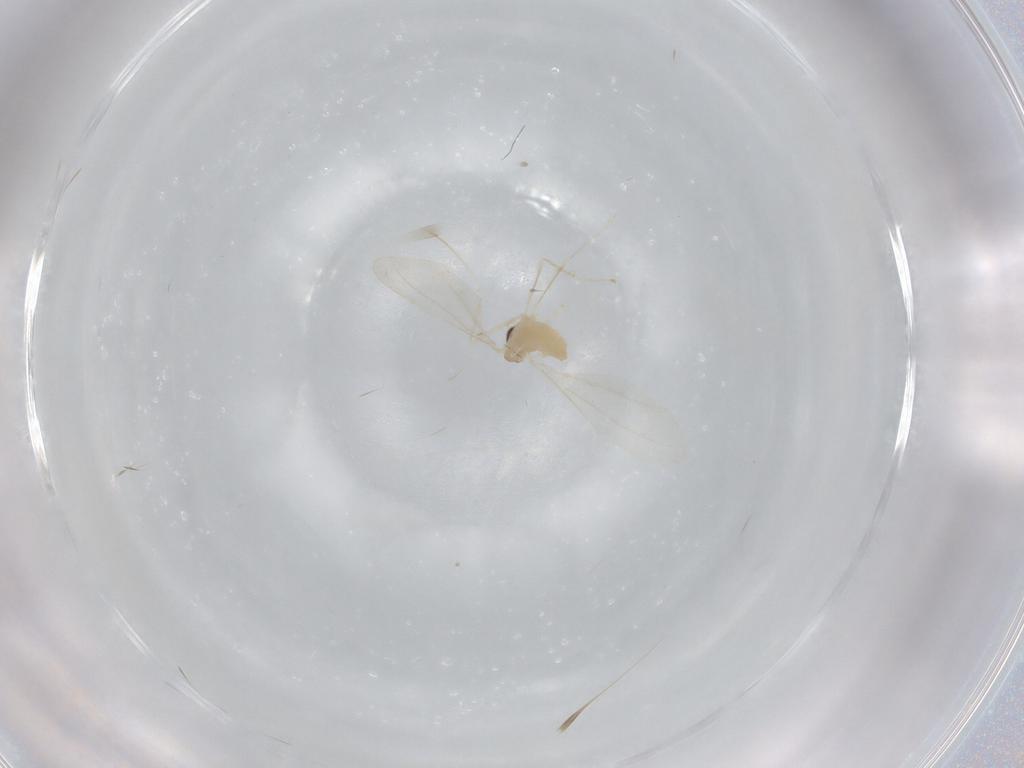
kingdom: Animalia
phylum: Arthropoda
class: Insecta
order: Diptera
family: Cecidomyiidae
